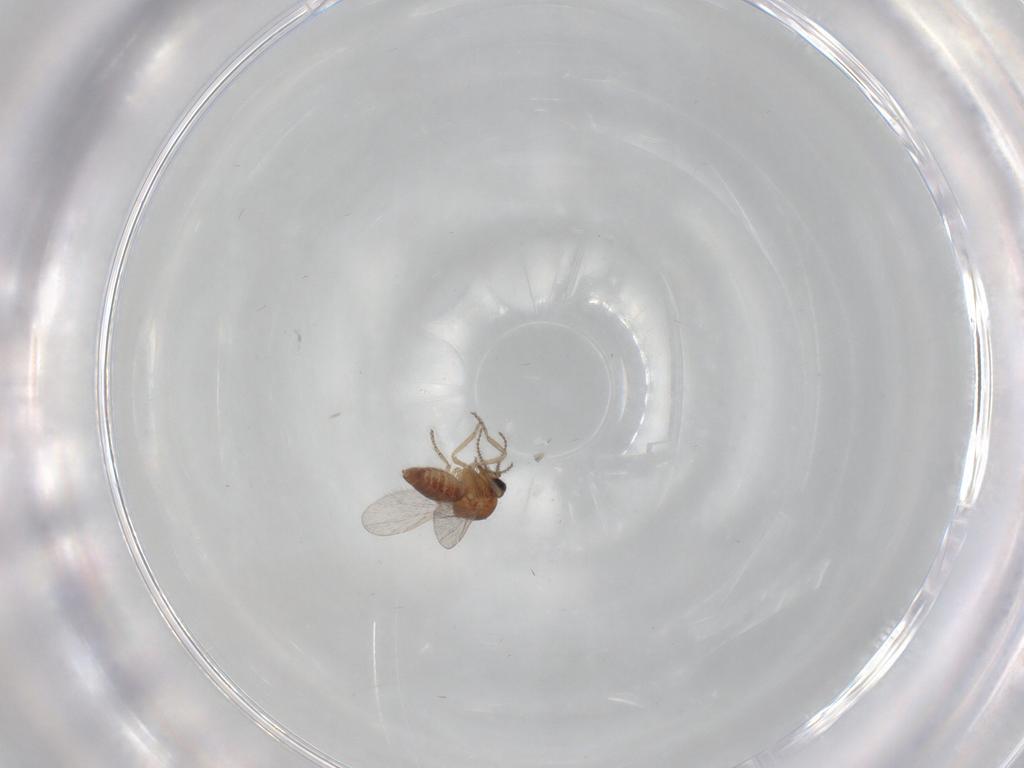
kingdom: Animalia
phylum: Arthropoda
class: Insecta
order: Diptera
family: Ceratopogonidae
